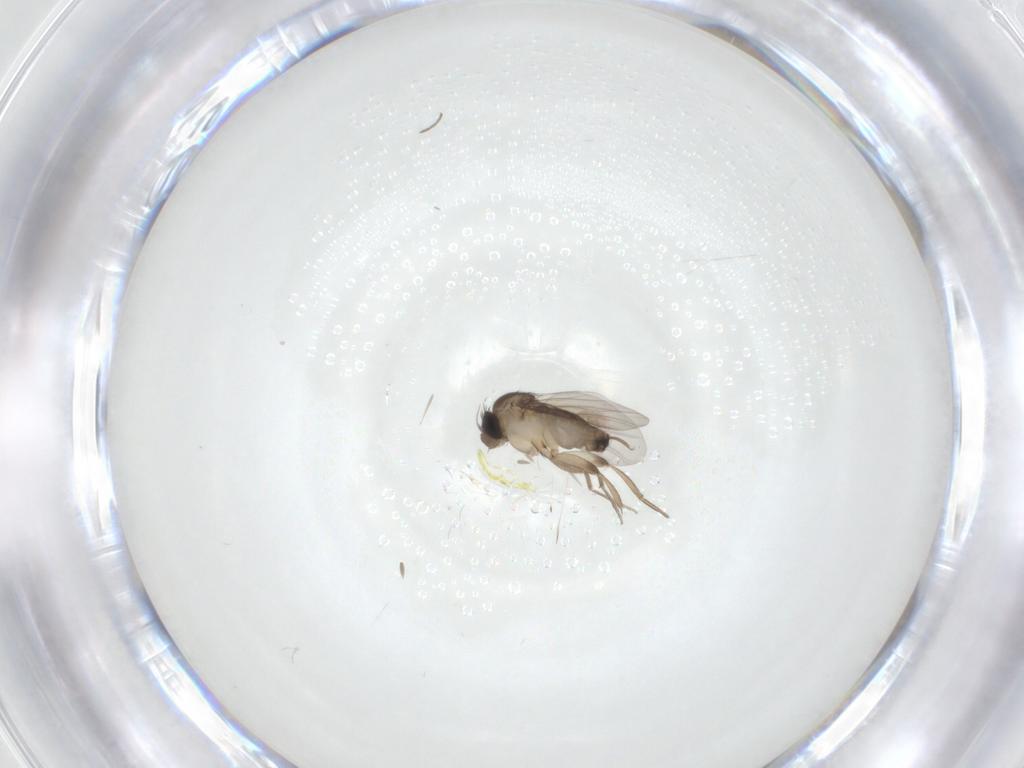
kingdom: Animalia
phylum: Arthropoda
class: Insecta
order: Diptera
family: Phoridae
